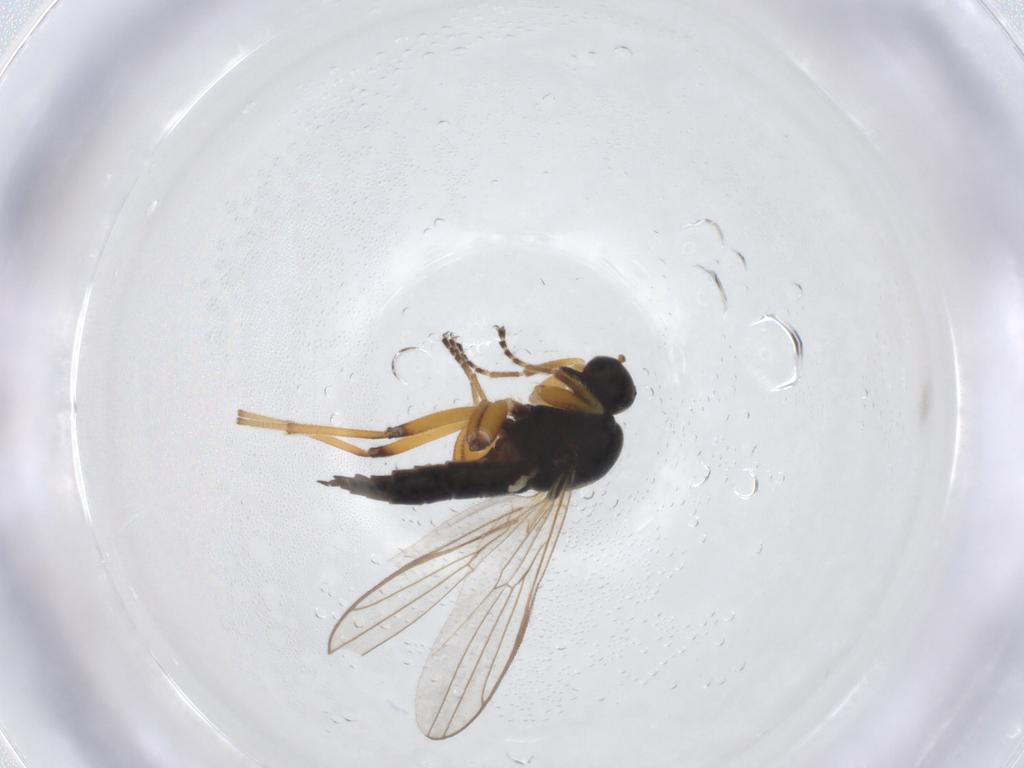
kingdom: Animalia
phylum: Arthropoda
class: Insecta
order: Diptera
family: Hybotidae
